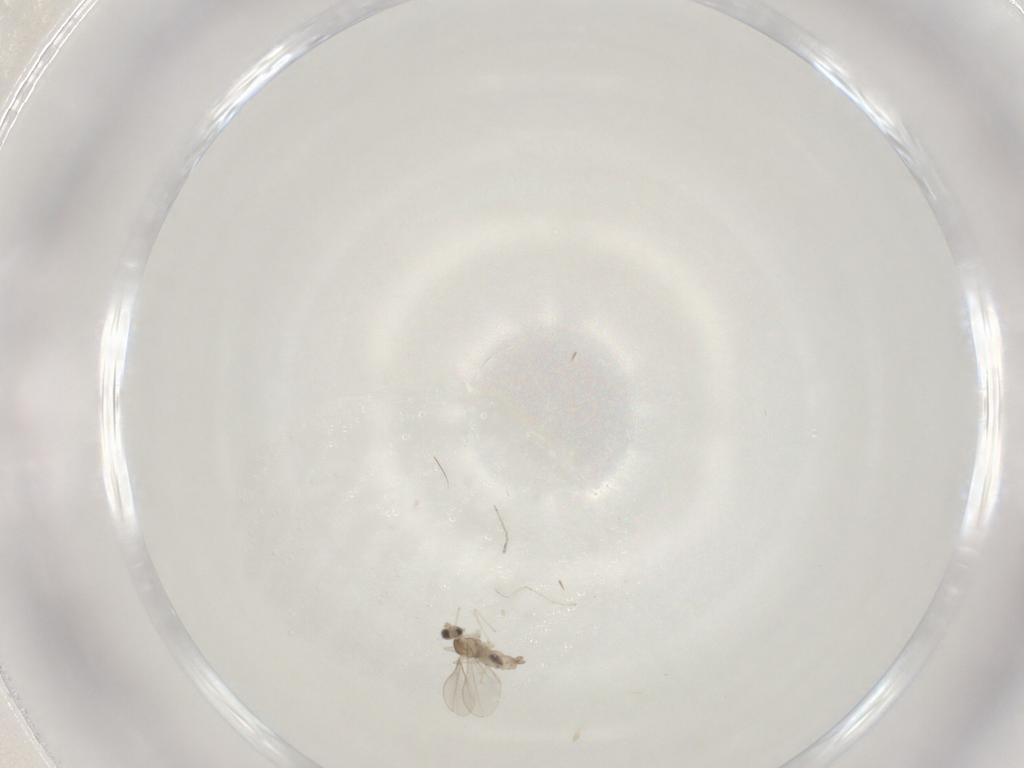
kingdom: Animalia
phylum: Arthropoda
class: Insecta
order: Diptera
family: Cecidomyiidae
